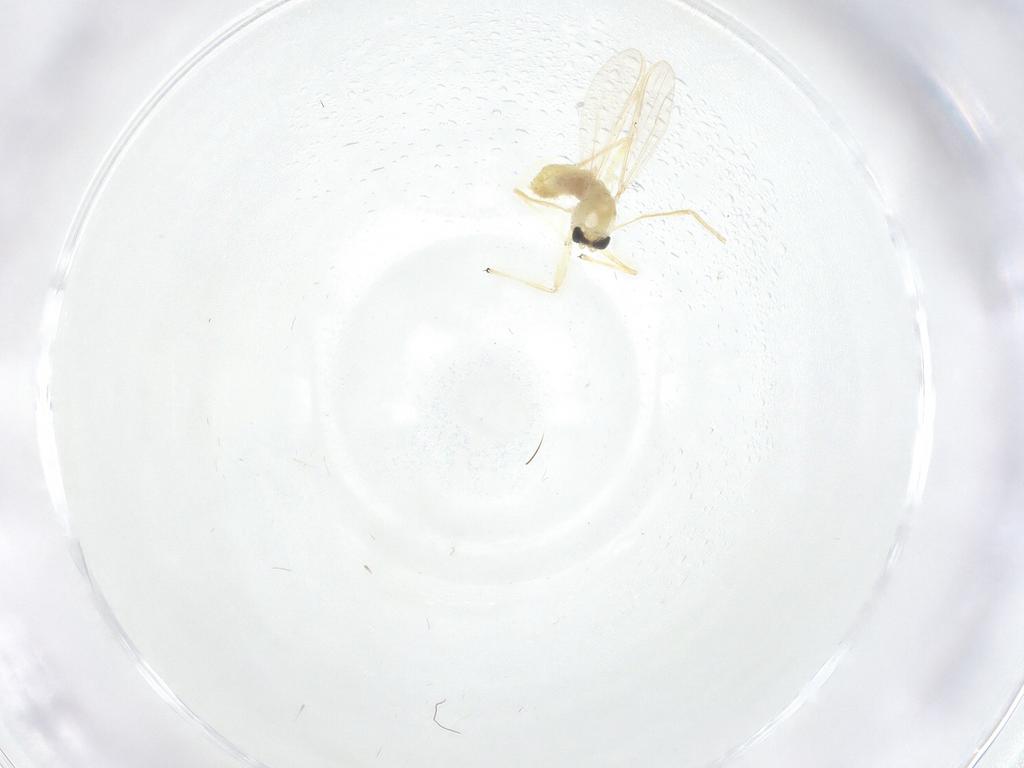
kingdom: Animalia
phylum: Arthropoda
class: Insecta
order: Diptera
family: Chironomidae
